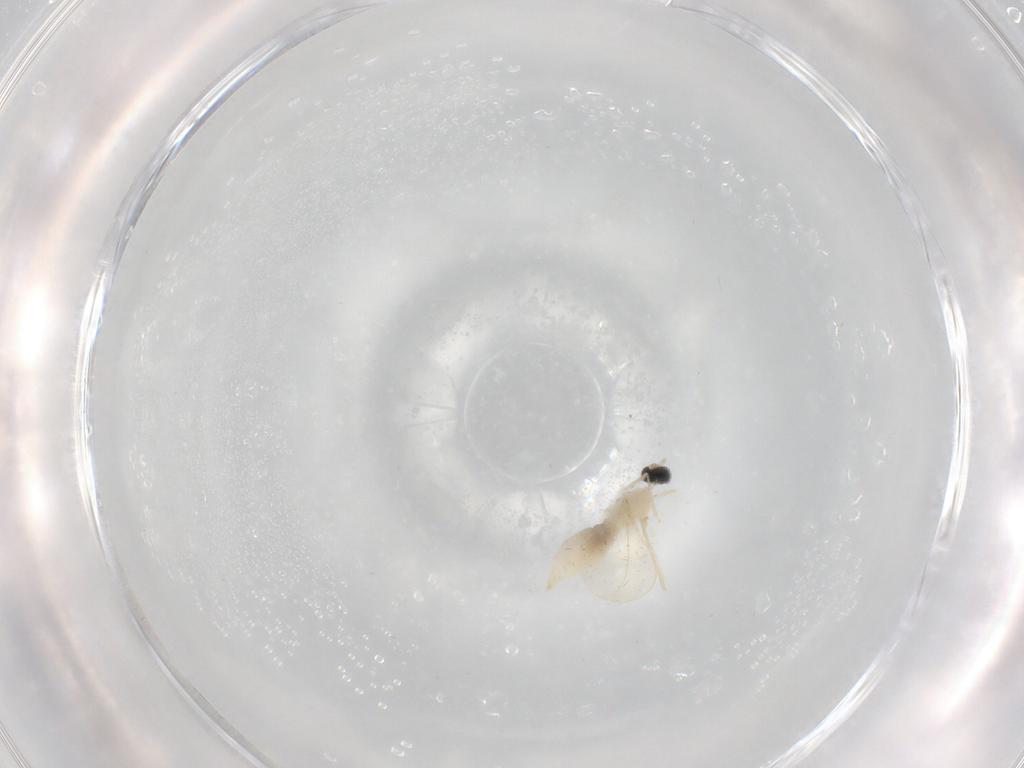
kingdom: Animalia
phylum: Arthropoda
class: Insecta
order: Diptera
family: Cecidomyiidae
